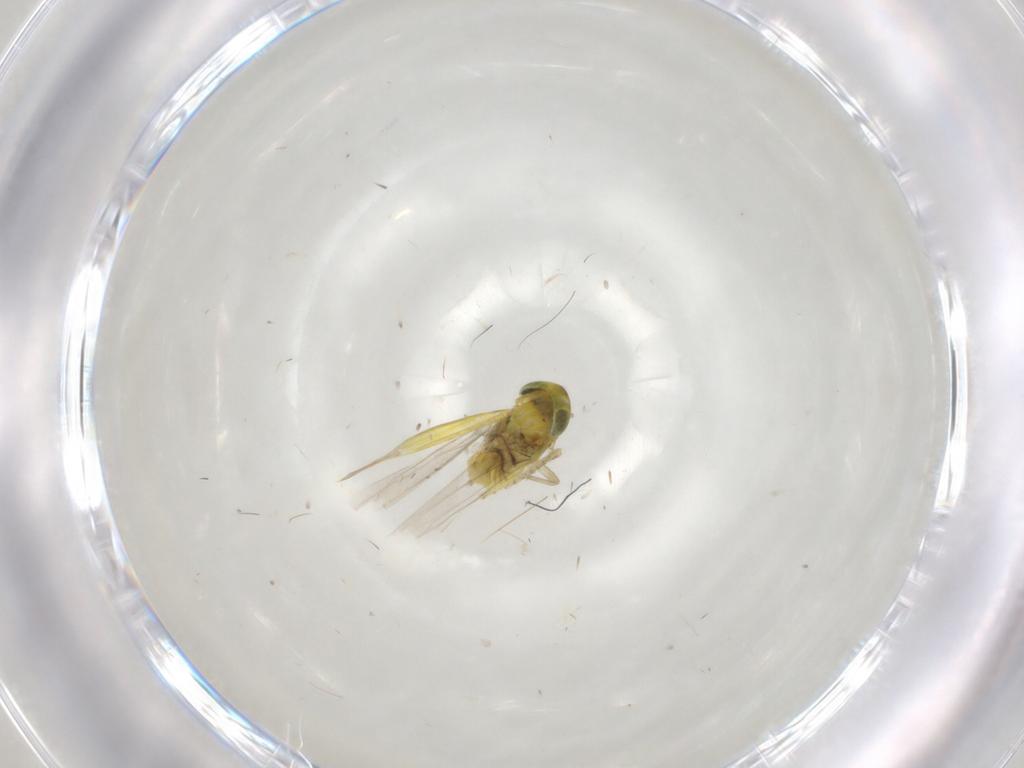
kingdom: Animalia
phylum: Arthropoda
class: Insecta
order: Hemiptera
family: Cicadellidae
